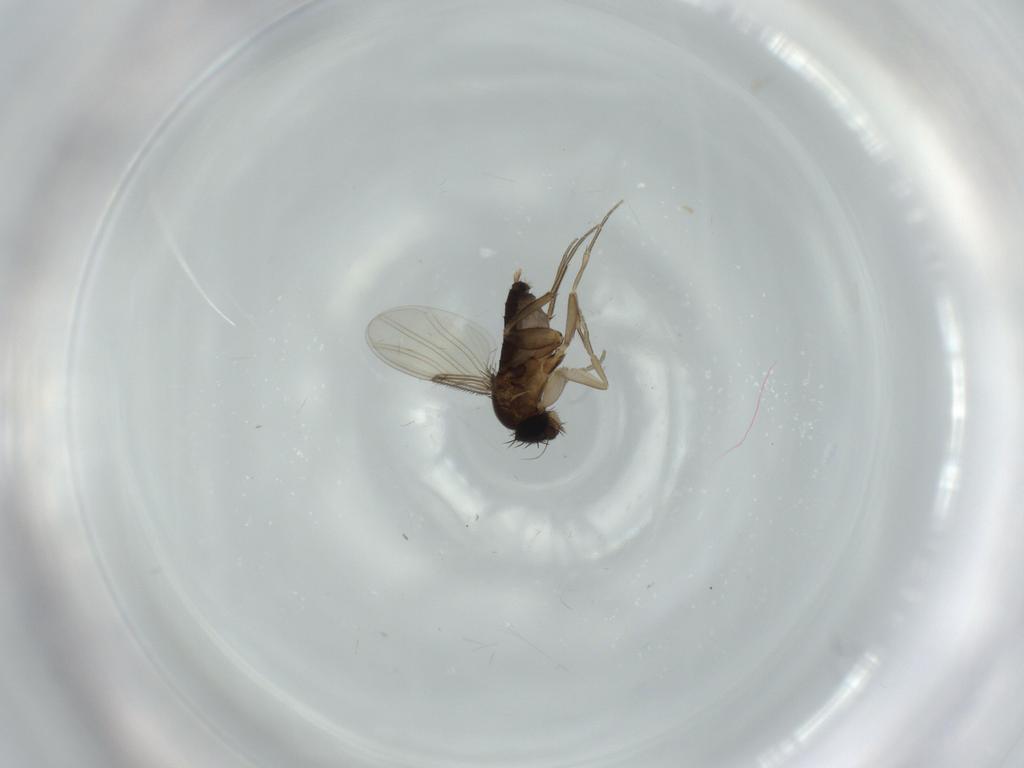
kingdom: Animalia
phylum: Arthropoda
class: Insecta
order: Diptera
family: Phoridae
